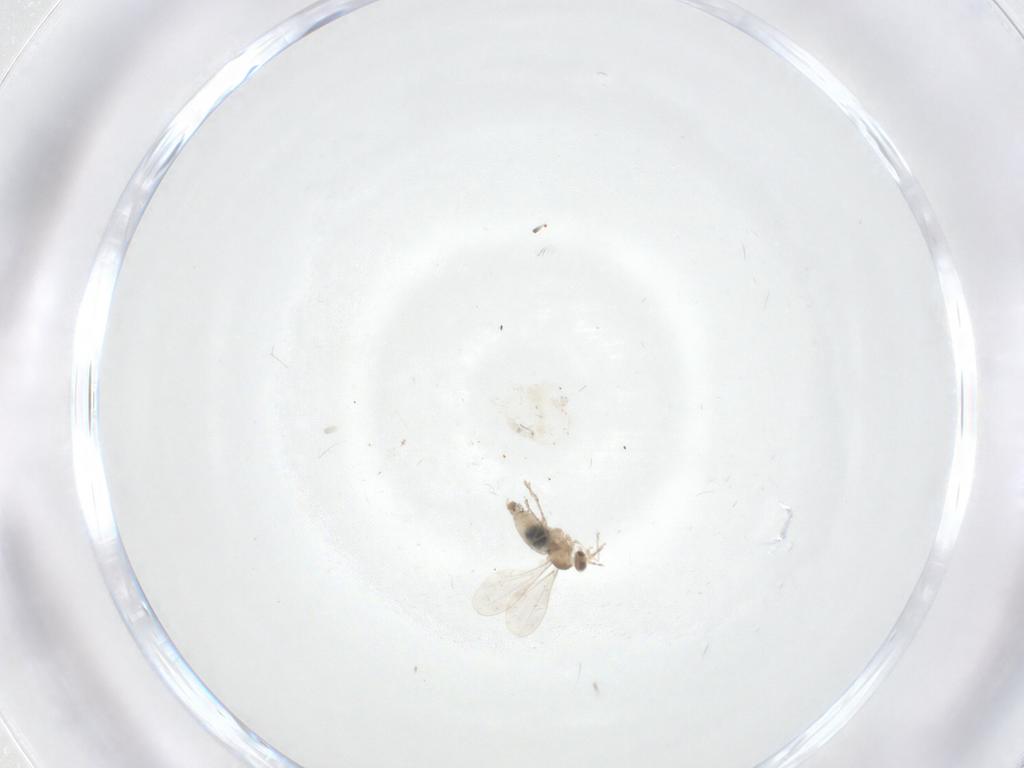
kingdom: Animalia
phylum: Arthropoda
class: Insecta
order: Diptera
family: Cecidomyiidae
